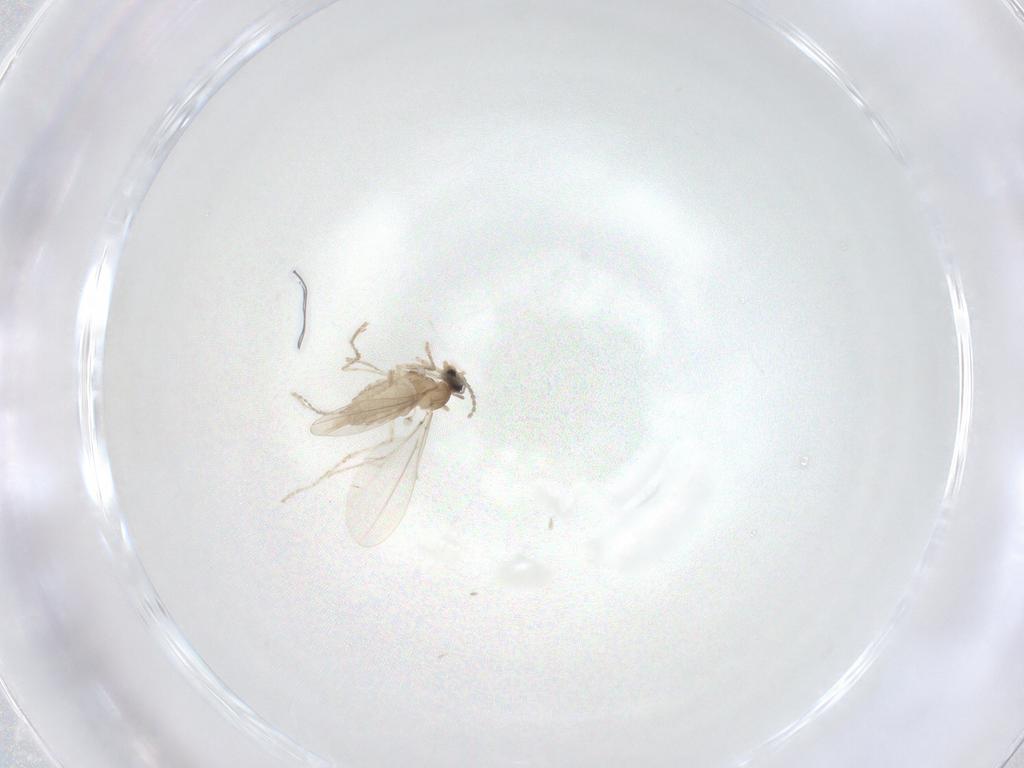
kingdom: Animalia
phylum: Arthropoda
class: Insecta
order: Diptera
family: Cecidomyiidae
